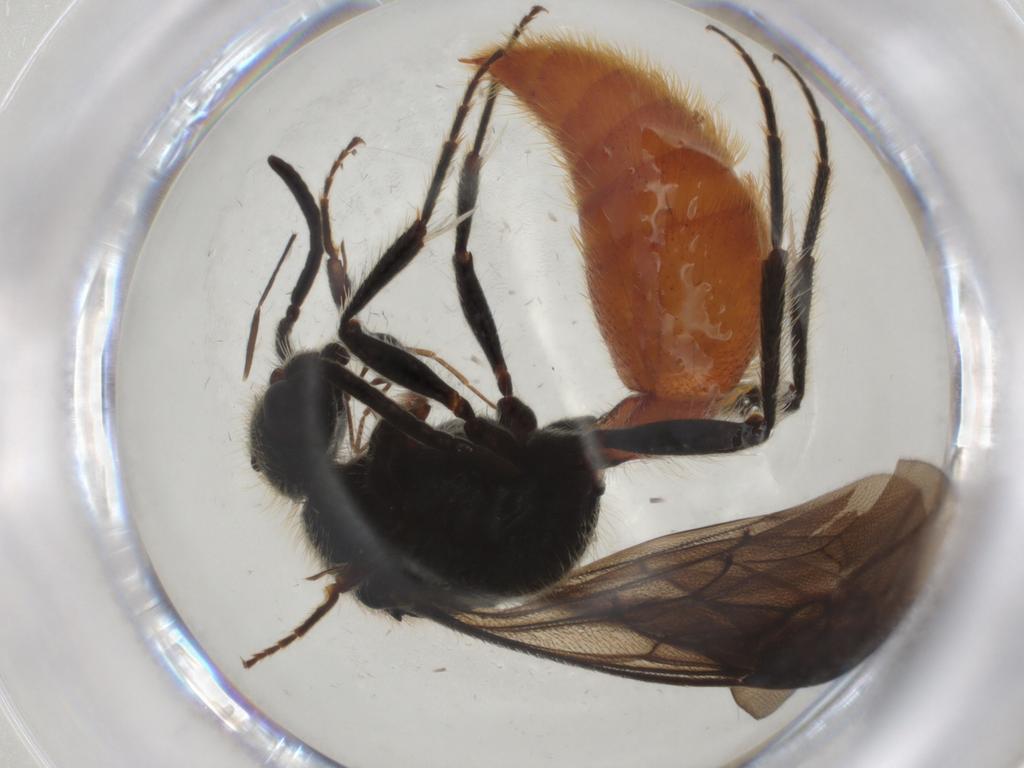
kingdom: Animalia
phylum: Arthropoda
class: Insecta
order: Hymenoptera
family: Mutillidae
